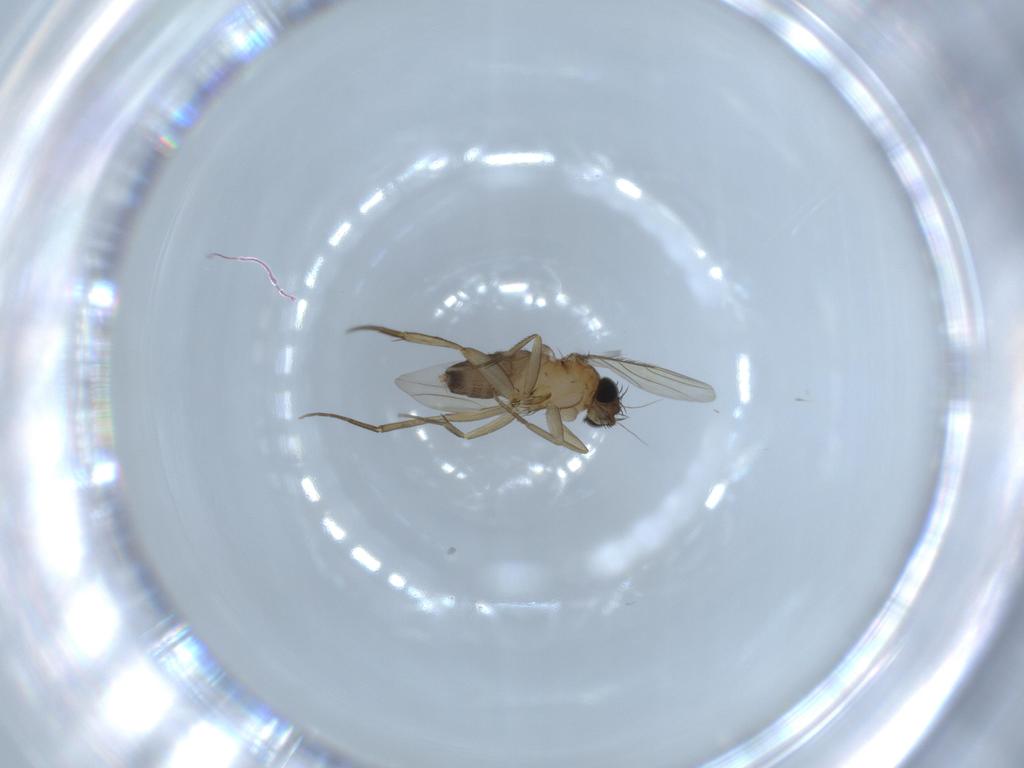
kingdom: Animalia
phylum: Arthropoda
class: Insecta
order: Diptera
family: Phoridae
